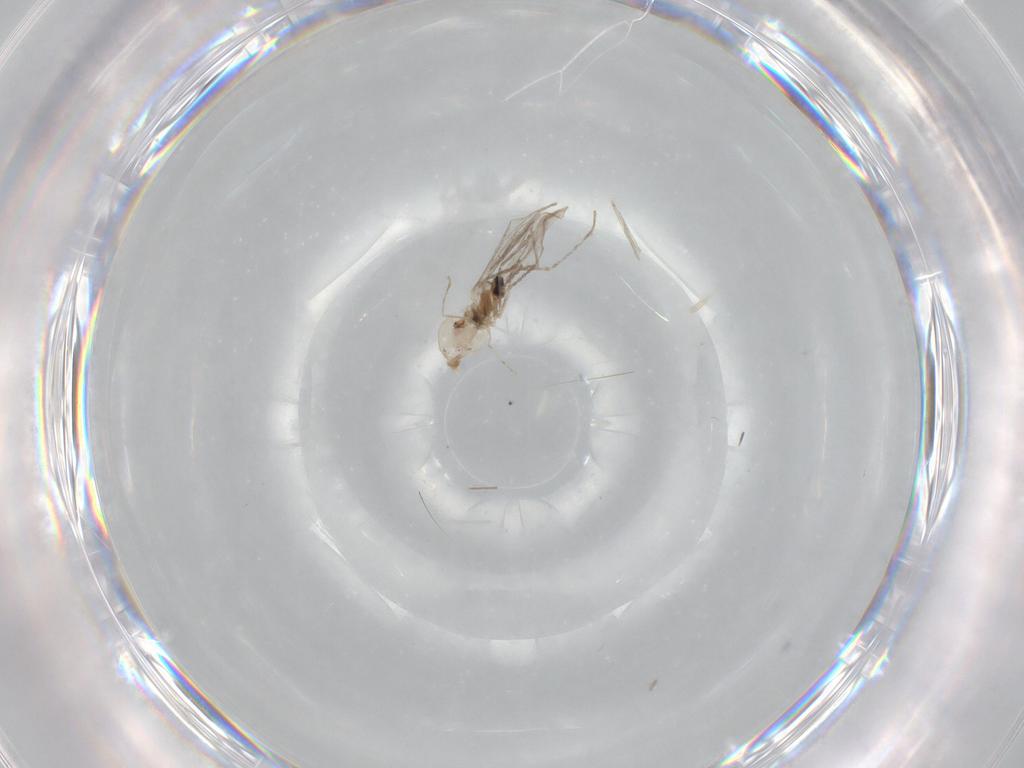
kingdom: Animalia
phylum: Arthropoda
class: Insecta
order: Diptera
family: Cecidomyiidae
